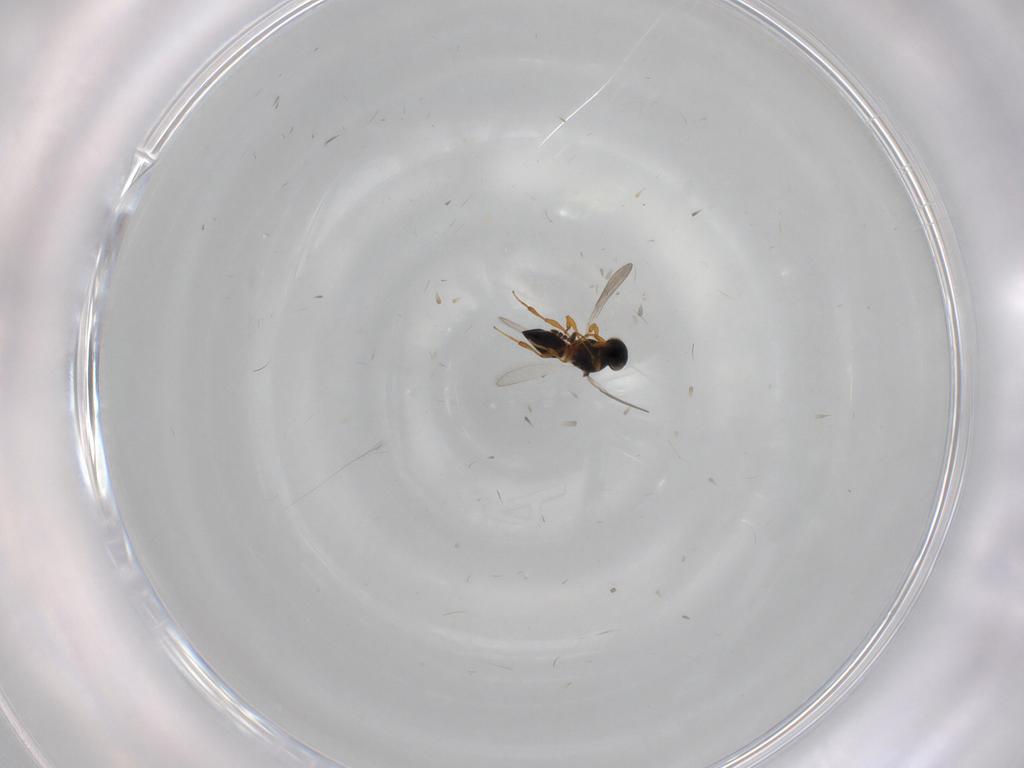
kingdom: Animalia
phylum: Arthropoda
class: Insecta
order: Hymenoptera
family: Platygastridae
